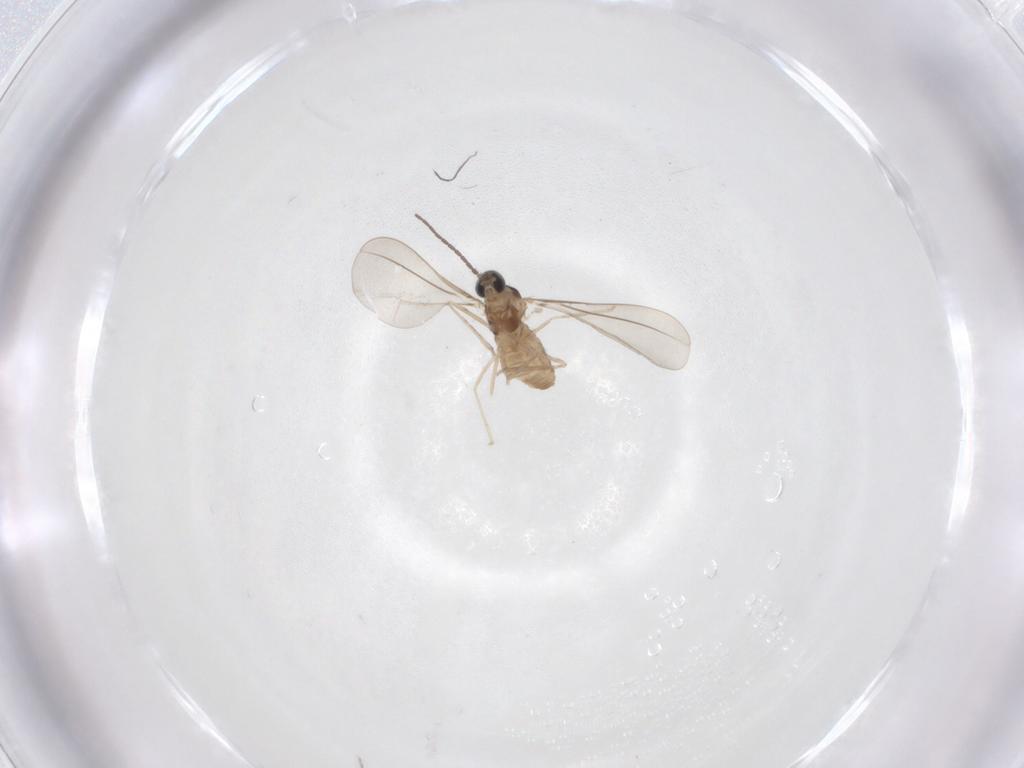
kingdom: Animalia
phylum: Arthropoda
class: Insecta
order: Diptera
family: Cecidomyiidae
